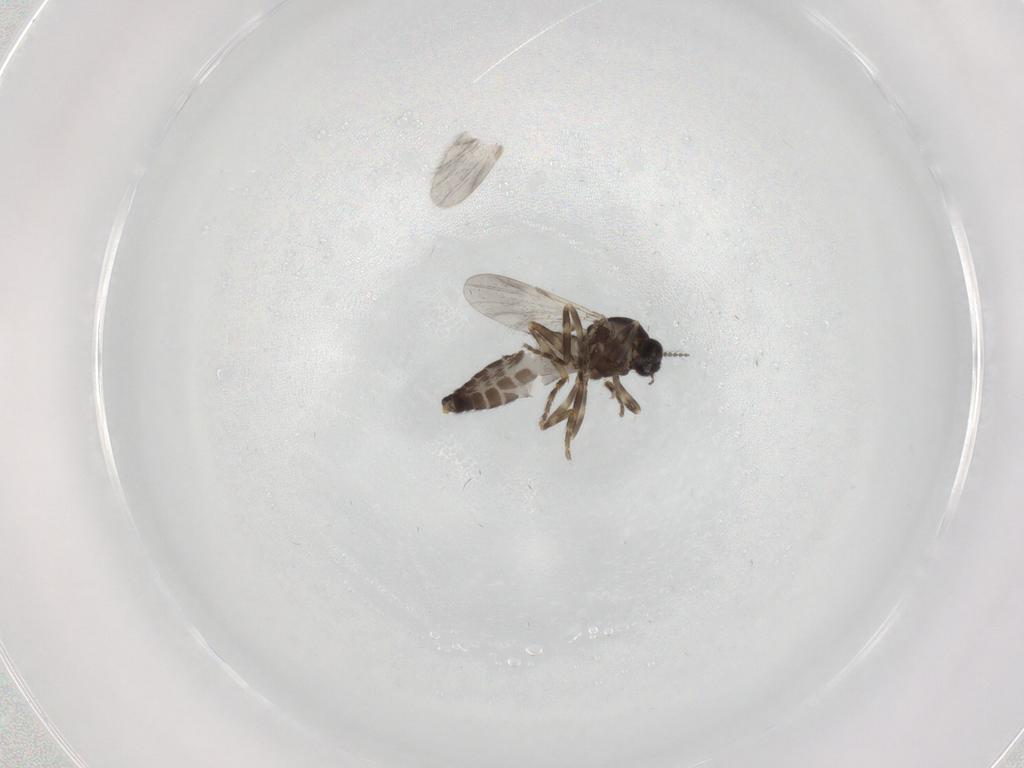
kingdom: Animalia
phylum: Arthropoda
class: Insecta
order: Diptera
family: Ceratopogonidae
